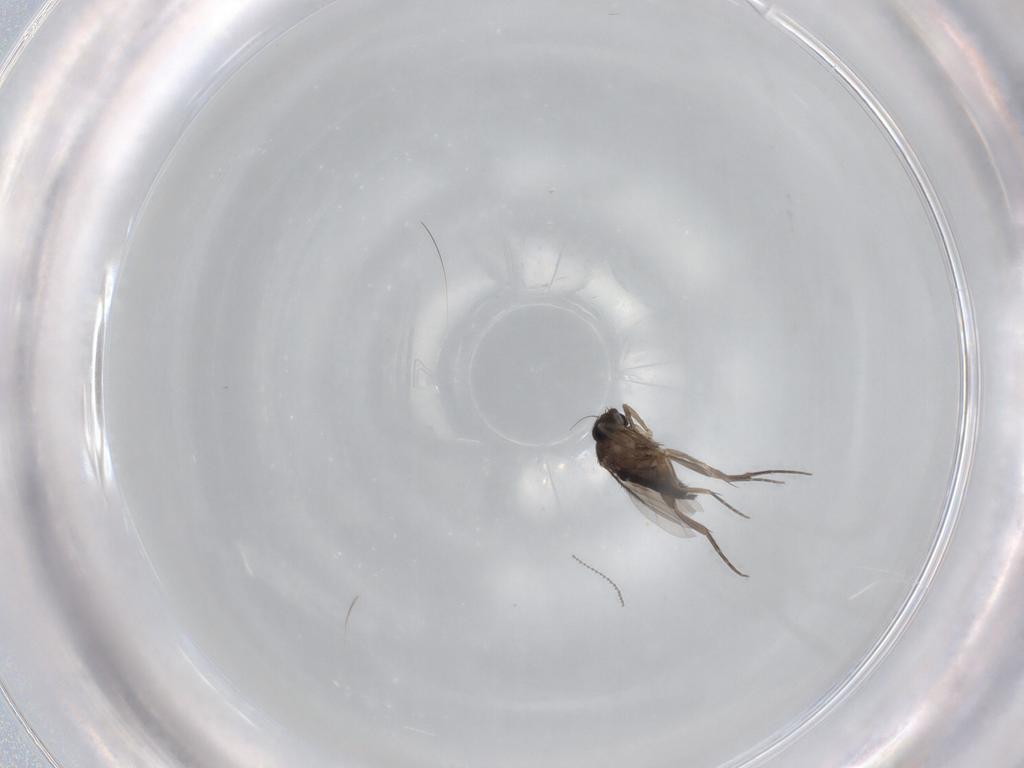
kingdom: Animalia
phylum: Arthropoda
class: Insecta
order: Diptera
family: Phoridae
